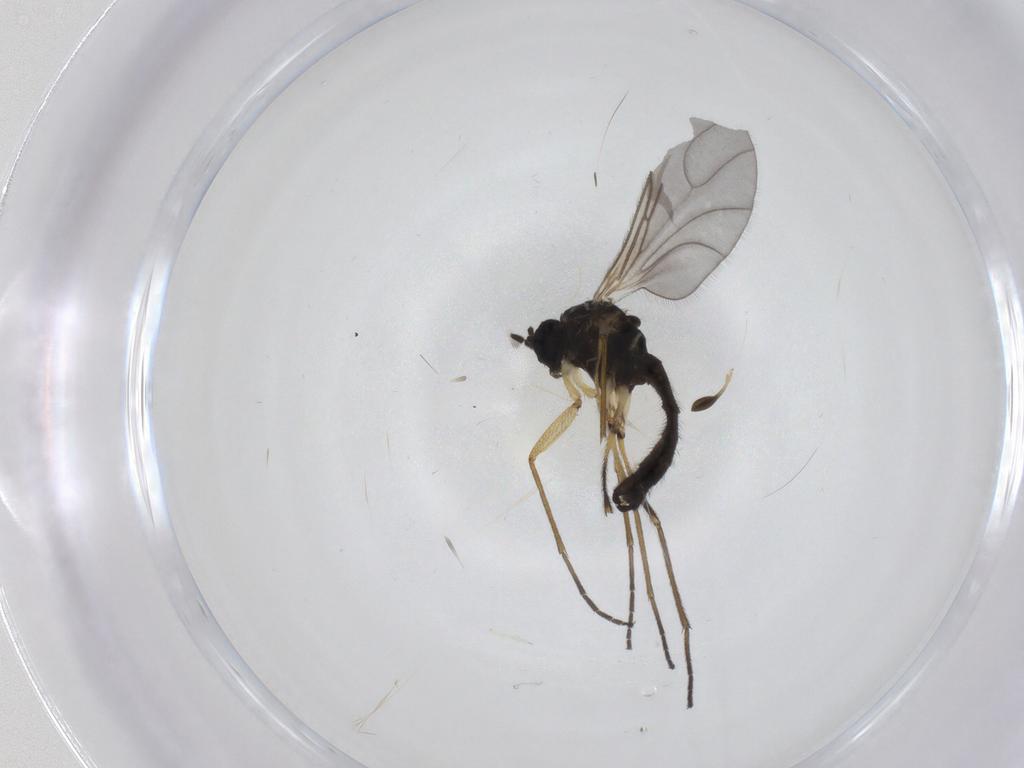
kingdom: Animalia
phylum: Arthropoda
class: Insecta
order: Diptera
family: Sciaridae
